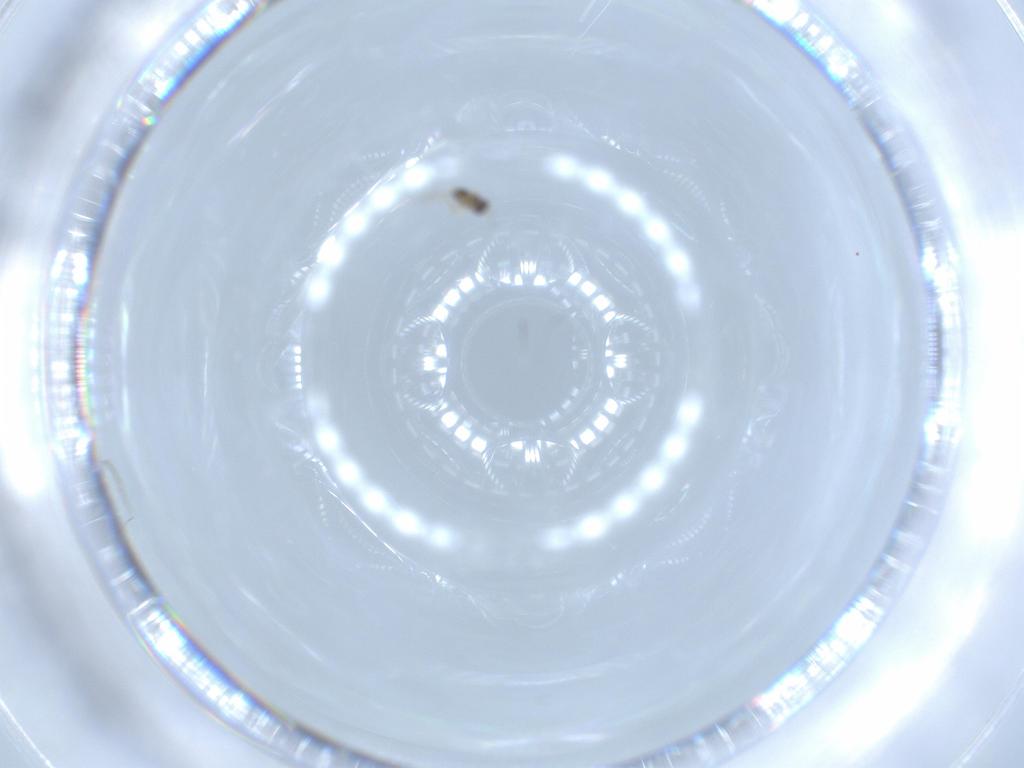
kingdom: Animalia
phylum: Arthropoda
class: Insecta
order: Hymenoptera
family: Mymaridae
